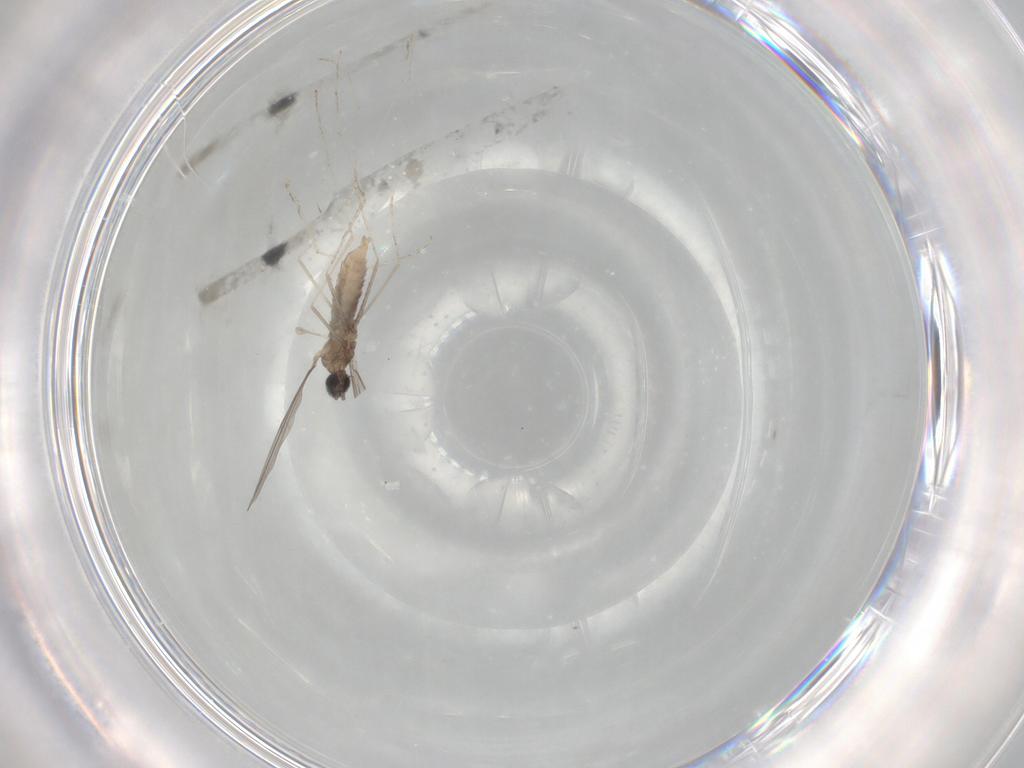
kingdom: Animalia
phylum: Arthropoda
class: Insecta
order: Diptera
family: Cecidomyiidae
